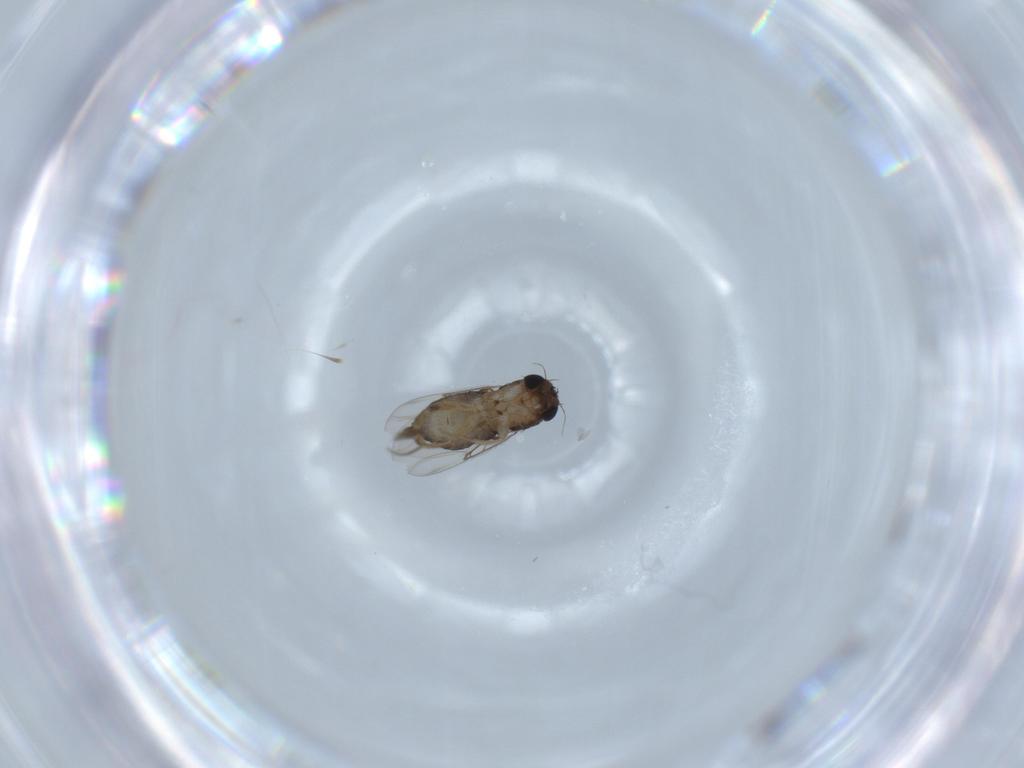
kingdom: Animalia
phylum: Arthropoda
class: Insecta
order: Diptera
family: Phoridae
